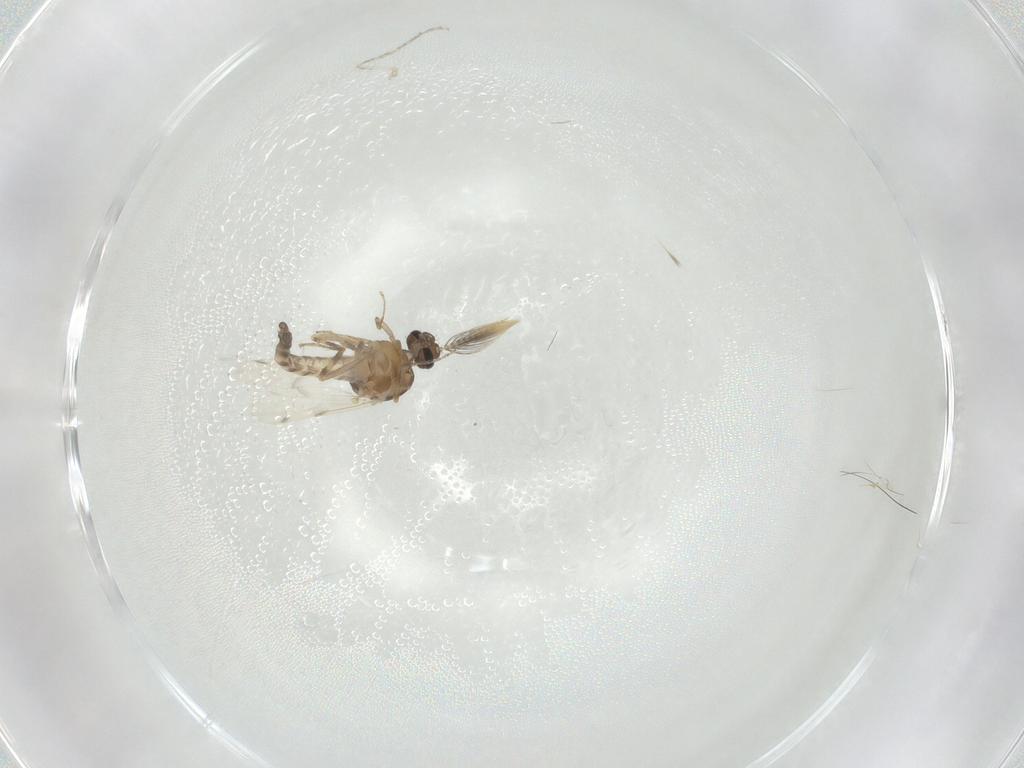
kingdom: Animalia
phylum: Arthropoda
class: Insecta
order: Diptera
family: Ceratopogonidae
